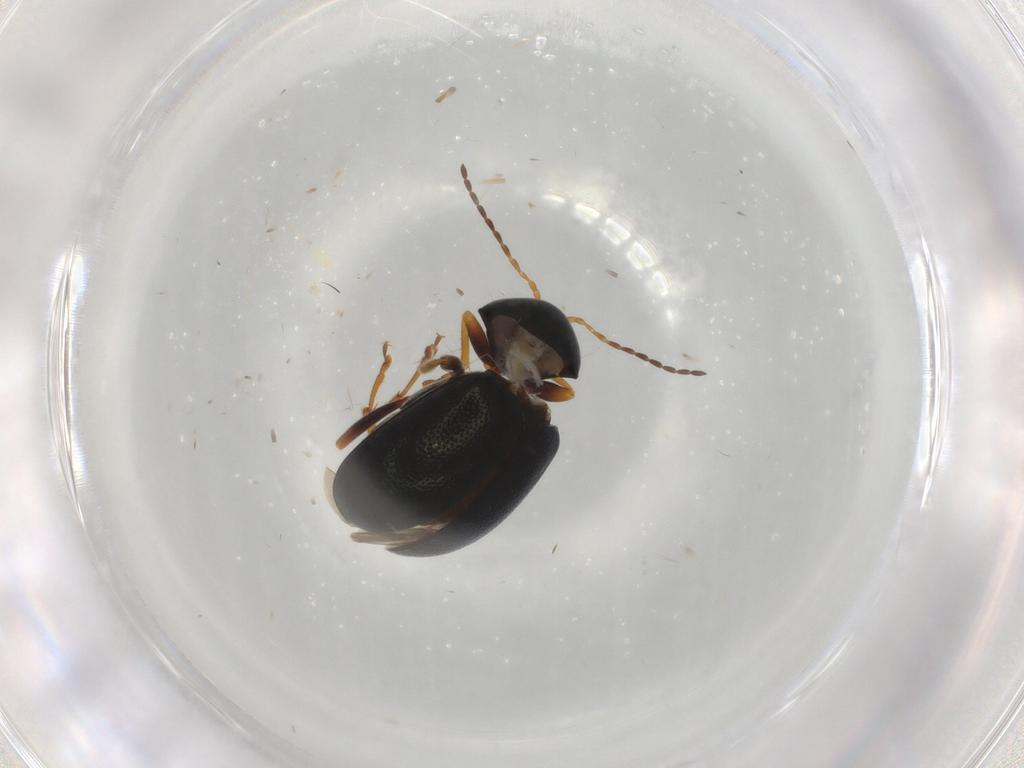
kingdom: Animalia
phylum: Arthropoda
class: Insecta
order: Coleoptera
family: Chrysomelidae
